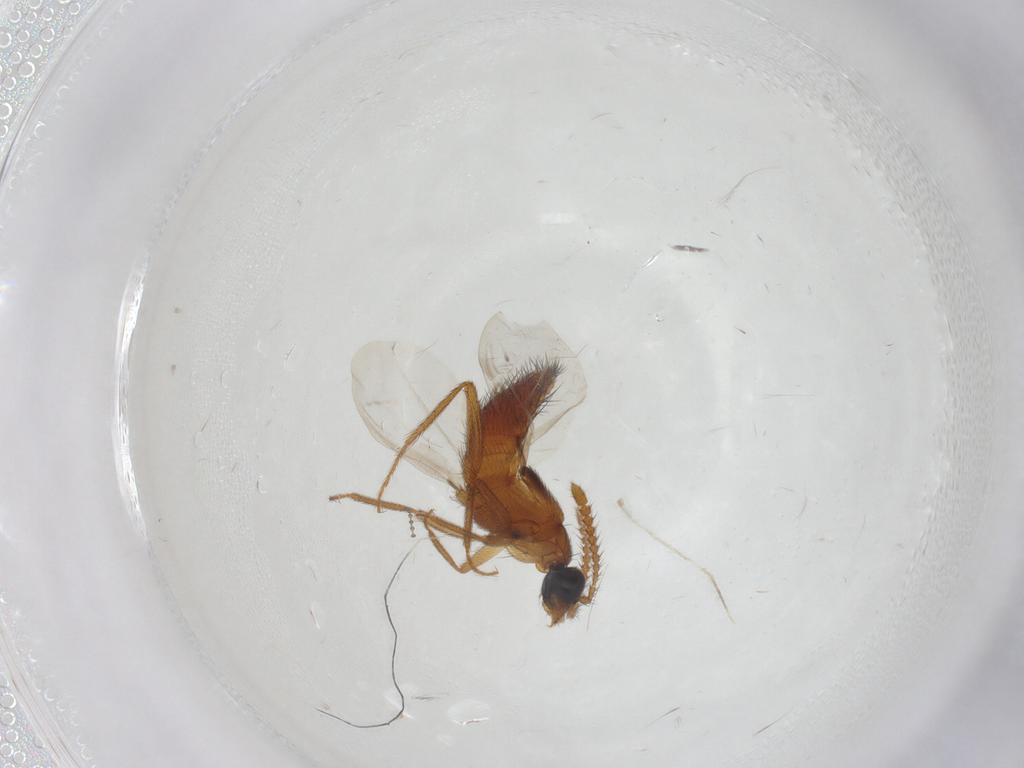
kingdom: Animalia
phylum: Arthropoda
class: Insecta
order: Coleoptera
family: Staphylinidae
